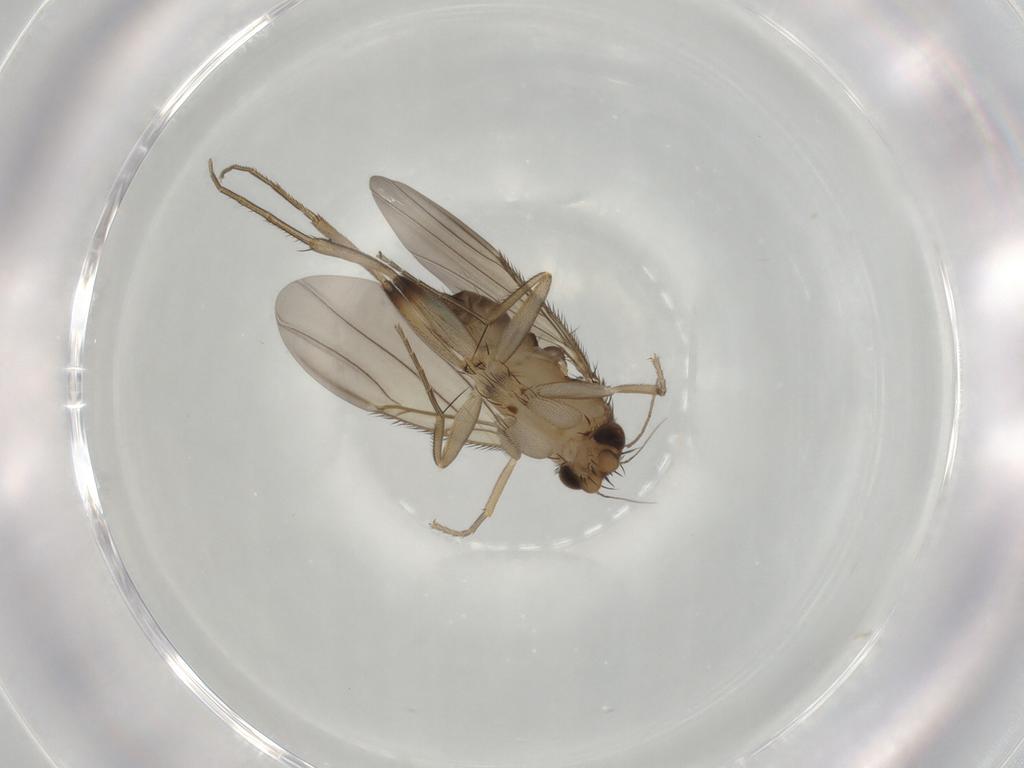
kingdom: Animalia
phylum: Arthropoda
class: Insecta
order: Diptera
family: Phoridae
